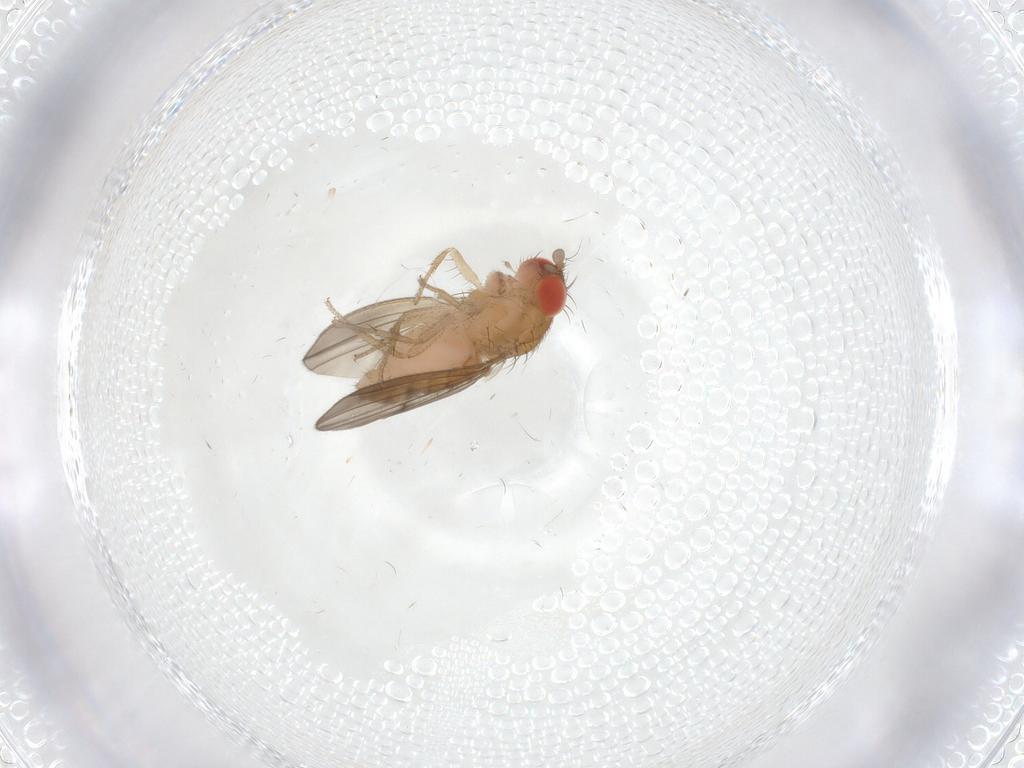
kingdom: Animalia
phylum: Arthropoda
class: Insecta
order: Diptera
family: Drosophilidae
